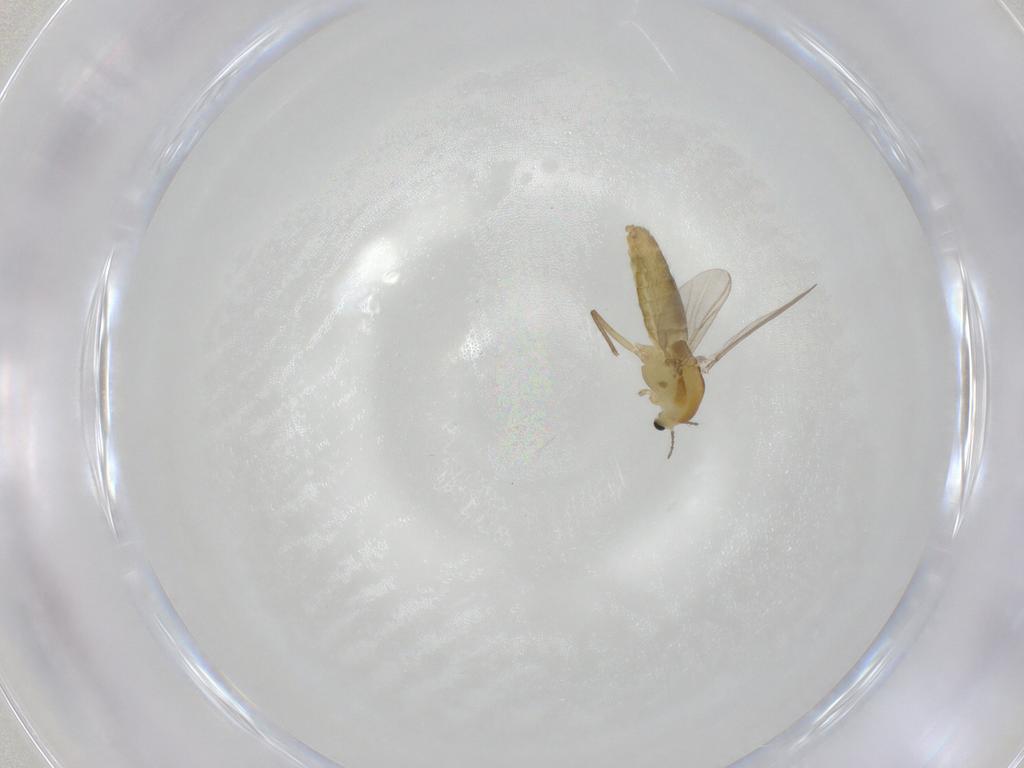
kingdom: Animalia
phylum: Arthropoda
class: Insecta
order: Diptera
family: Chironomidae
